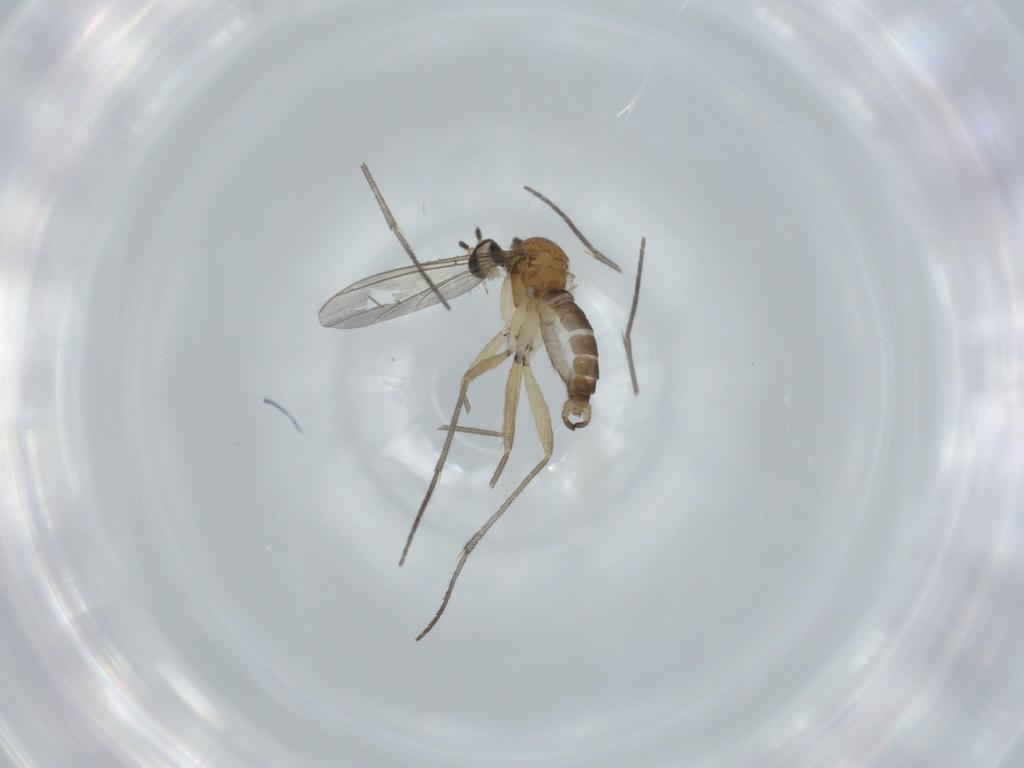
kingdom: Animalia
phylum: Arthropoda
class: Insecta
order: Diptera
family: Sciaridae
